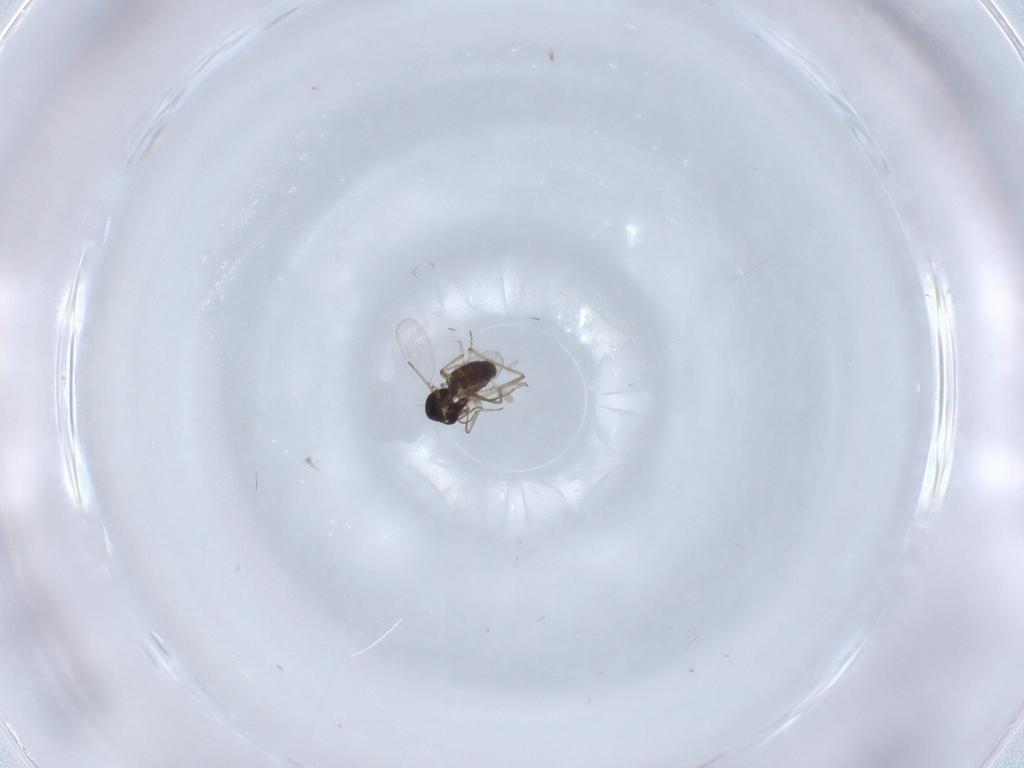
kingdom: Animalia
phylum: Arthropoda
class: Insecta
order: Diptera
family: Ceratopogonidae
